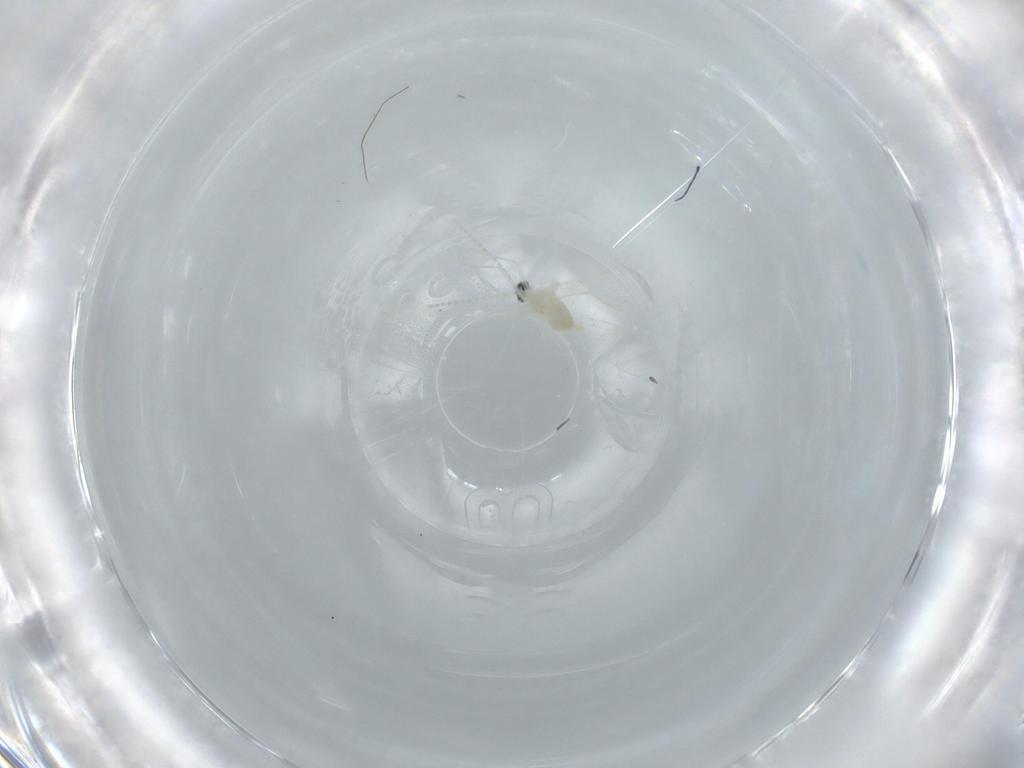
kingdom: Animalia
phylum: Arthropoda
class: Insecta
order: Diptera
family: Cecidomyiidae
